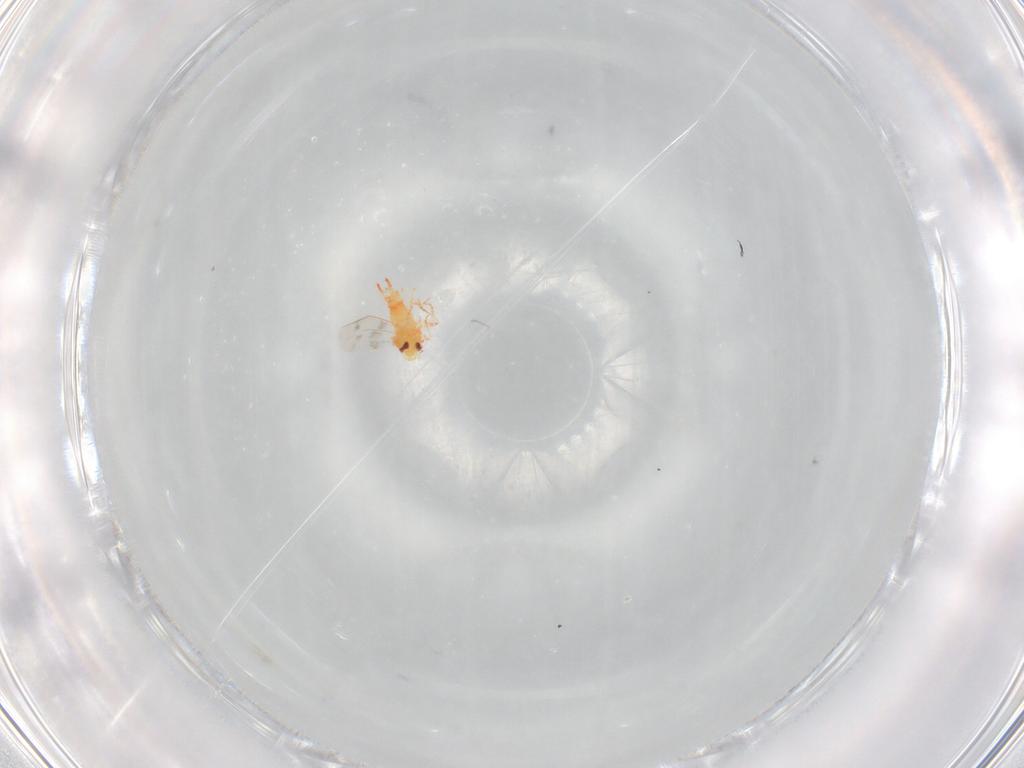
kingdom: Animalia
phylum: Arthropoda
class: Insecta
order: Hemiptera
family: Aleyrodidae
